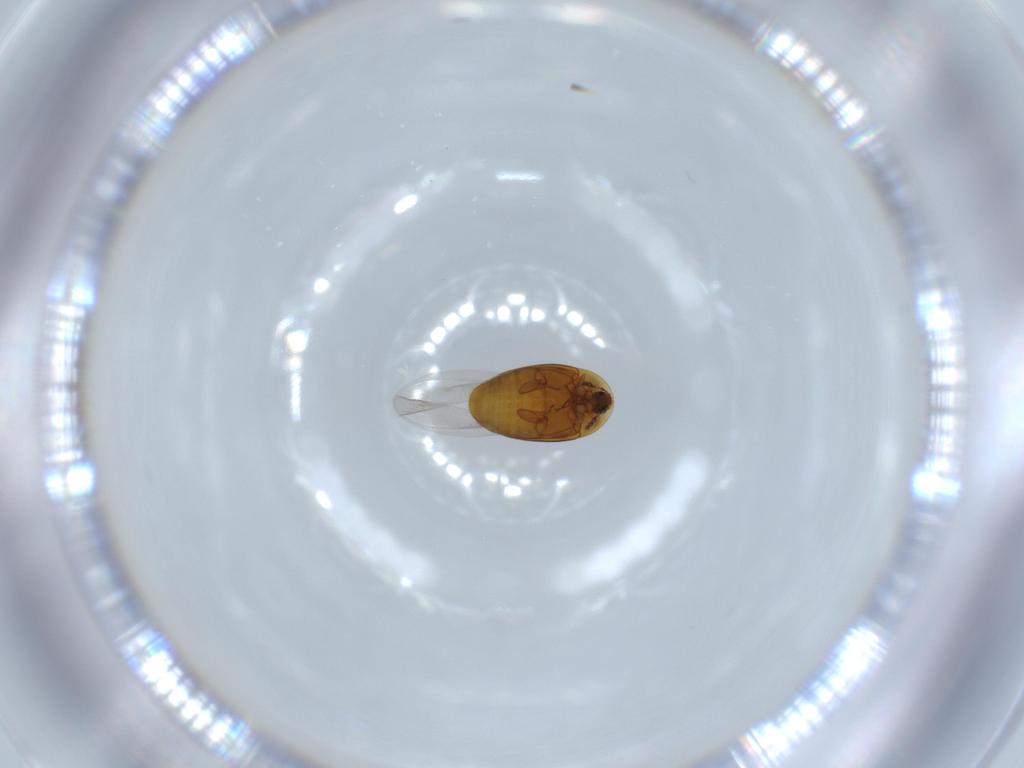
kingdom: Animalia
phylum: Arthropoda
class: Insecta
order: Coleoptera
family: Corylophidae
